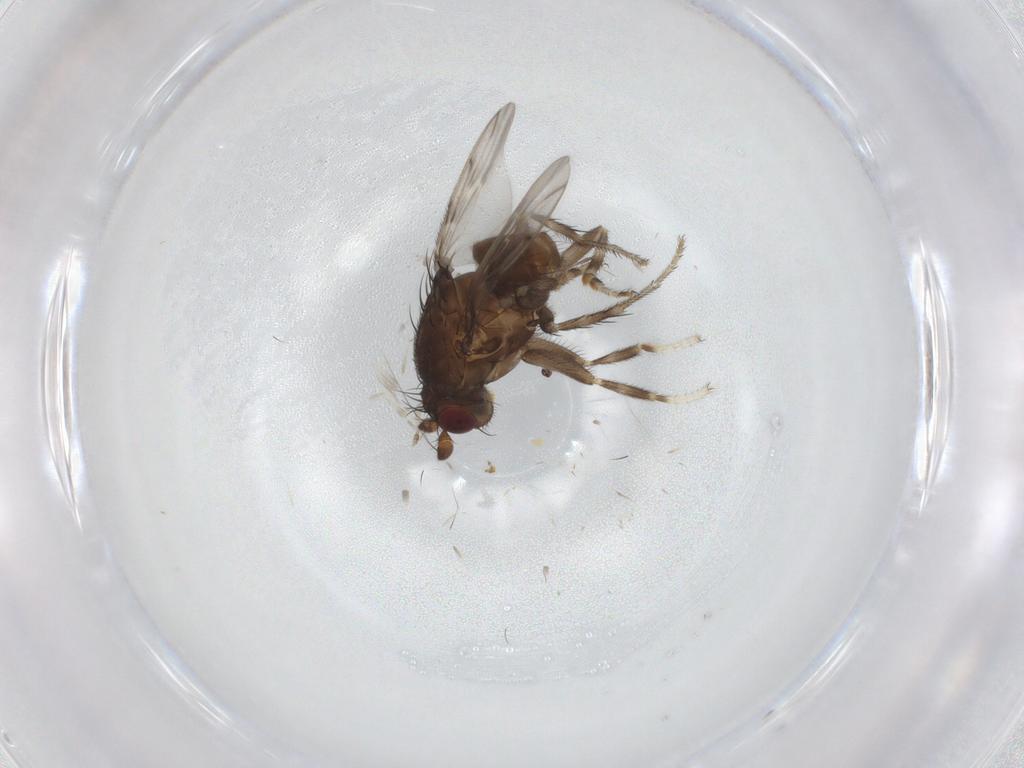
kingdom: Animalia
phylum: Arthropoda
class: Insecta
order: Diptera
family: Sphaeroceridae
